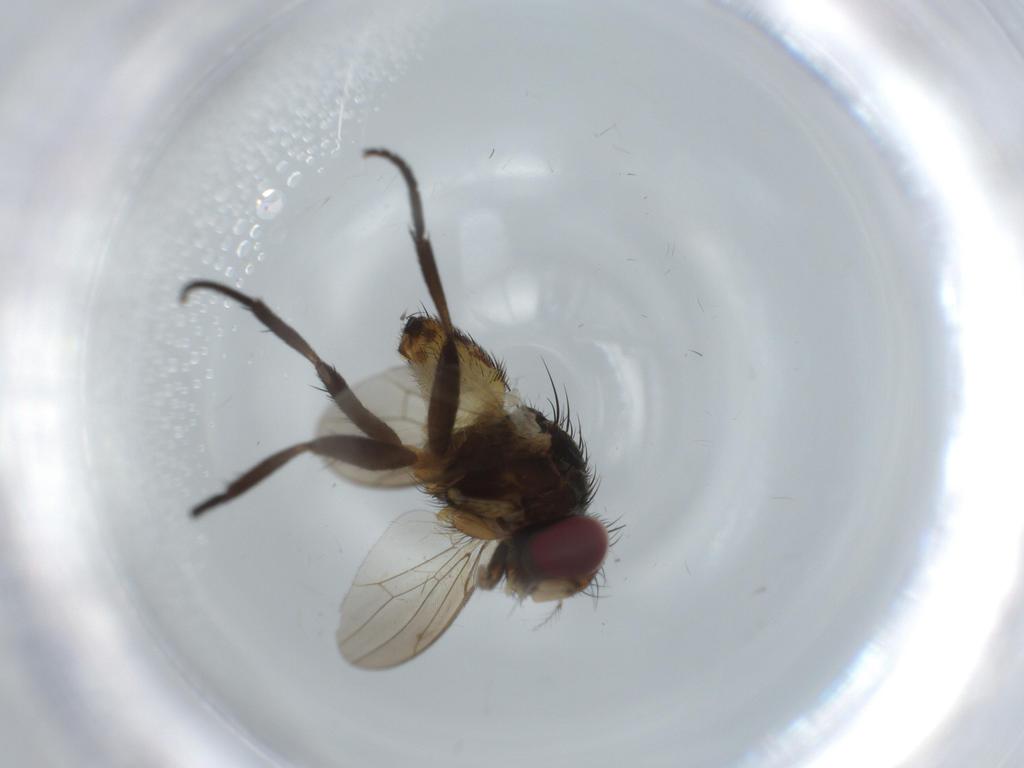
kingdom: Animalia
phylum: Arthropoda
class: Insecta
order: Diptera
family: Anthomyiidae
